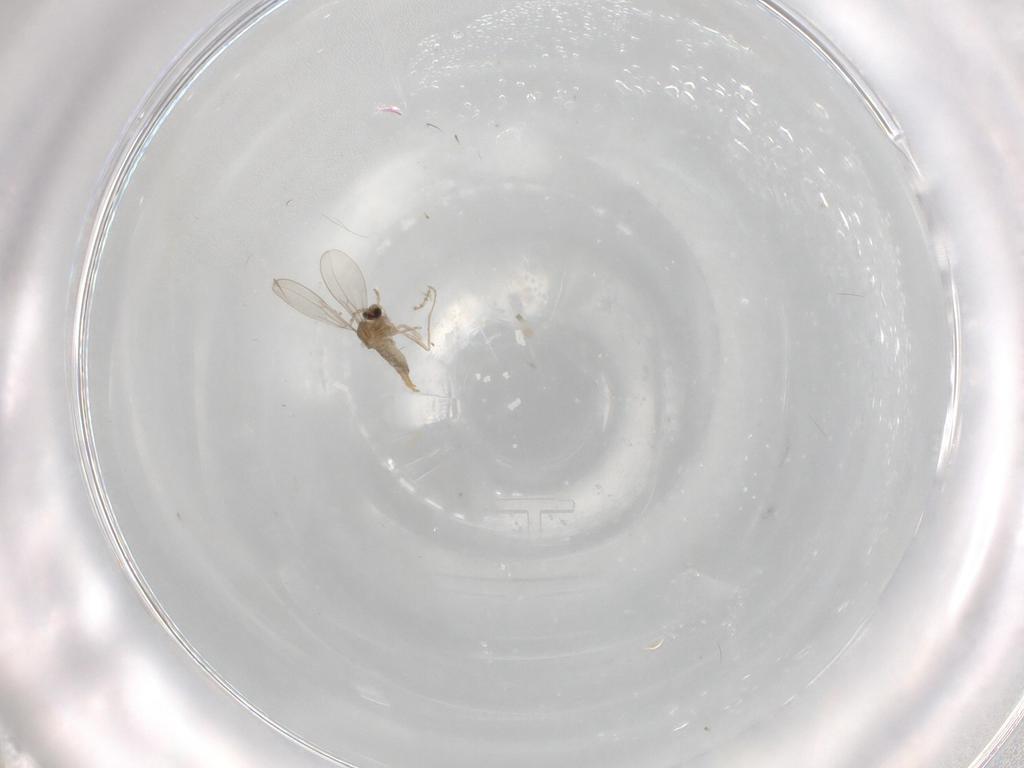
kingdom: Animalia
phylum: Arthropoda
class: Insecta
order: Diptera
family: Cecidomyiidae
